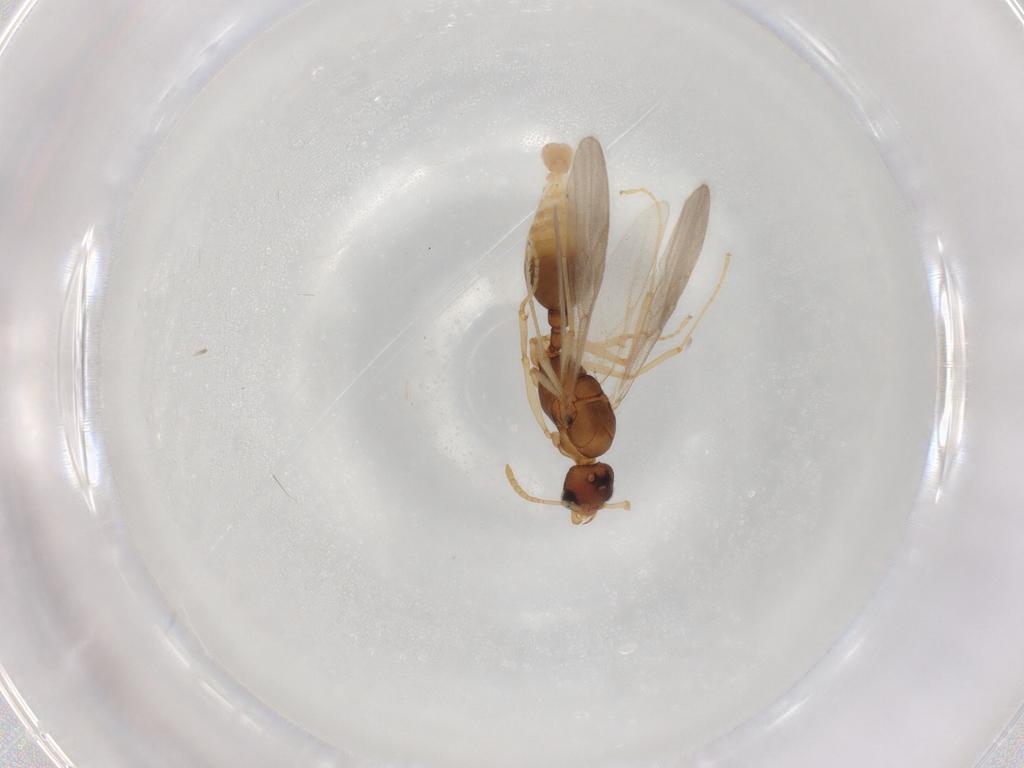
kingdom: Animalia
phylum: Arthropoda
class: Insecta
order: Hymenoptera
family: Formicidae
